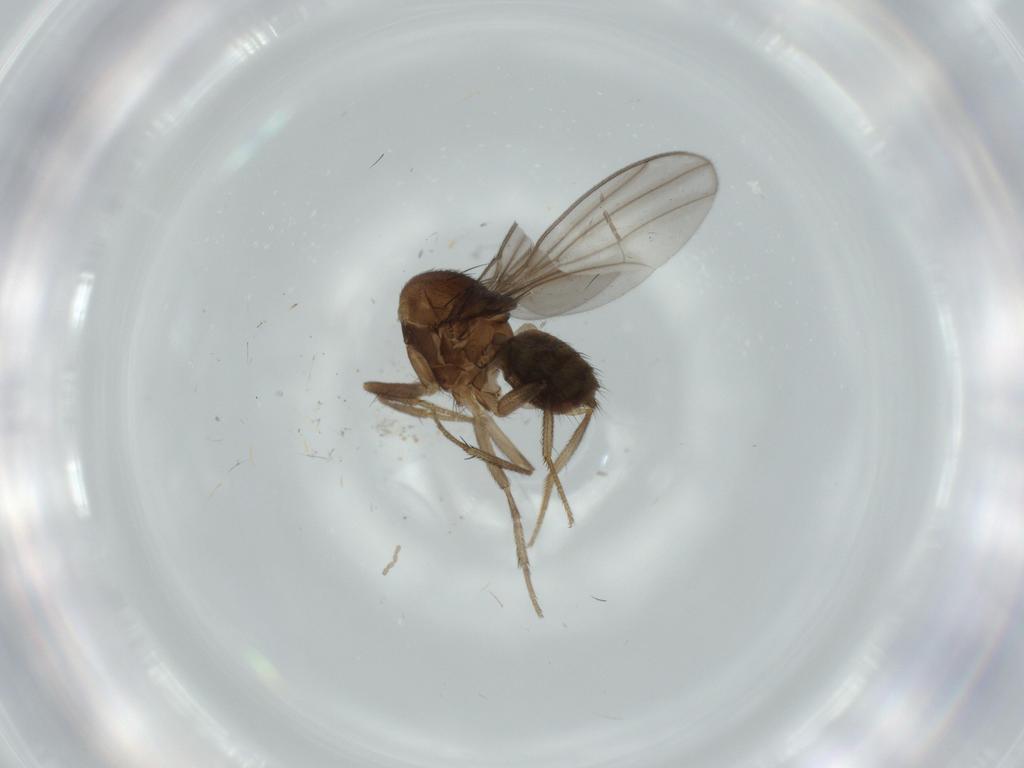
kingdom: Animalia
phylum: Arthropoda
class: Insecta
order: Diptera
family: Drosophilidae
